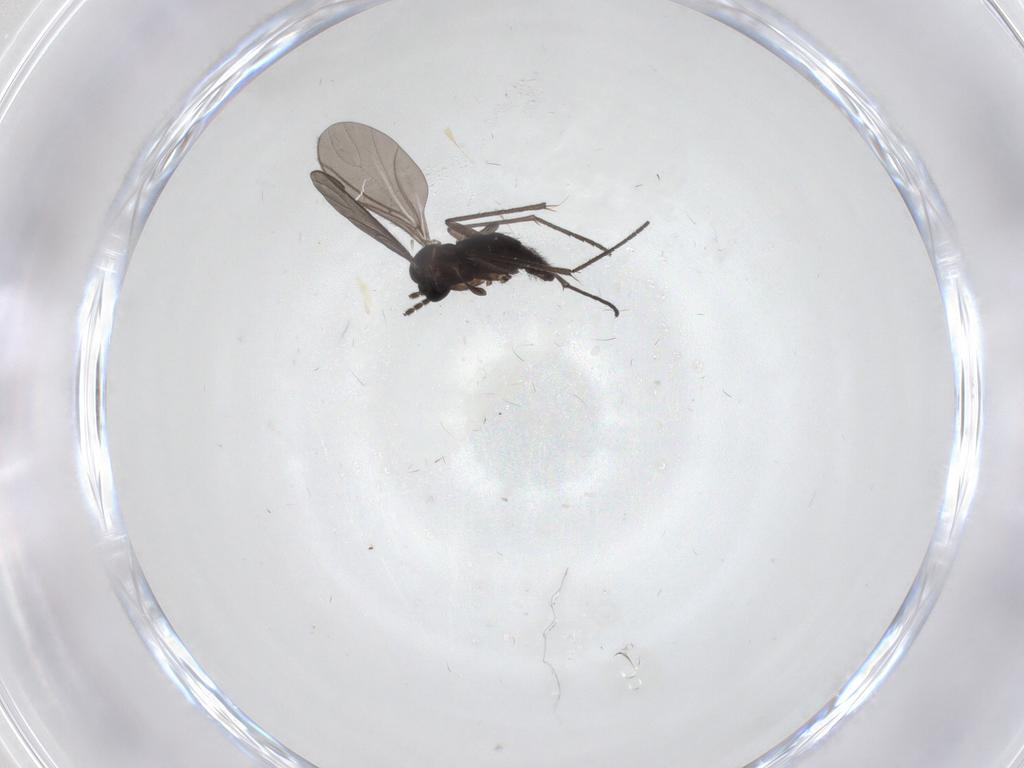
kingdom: Animalia
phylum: Arthropoda
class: Insecta
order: Diptera
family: Sciaridae
